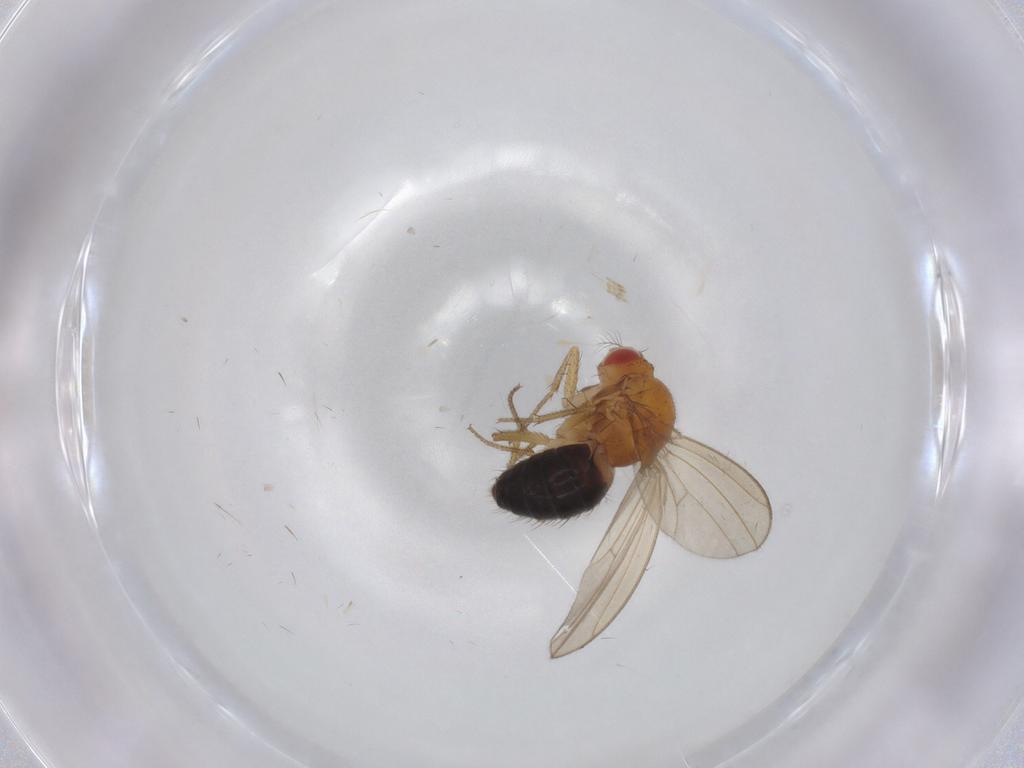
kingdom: Animalia
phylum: Arthropoda
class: Insecta
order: Diptera
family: Drosophilidae
